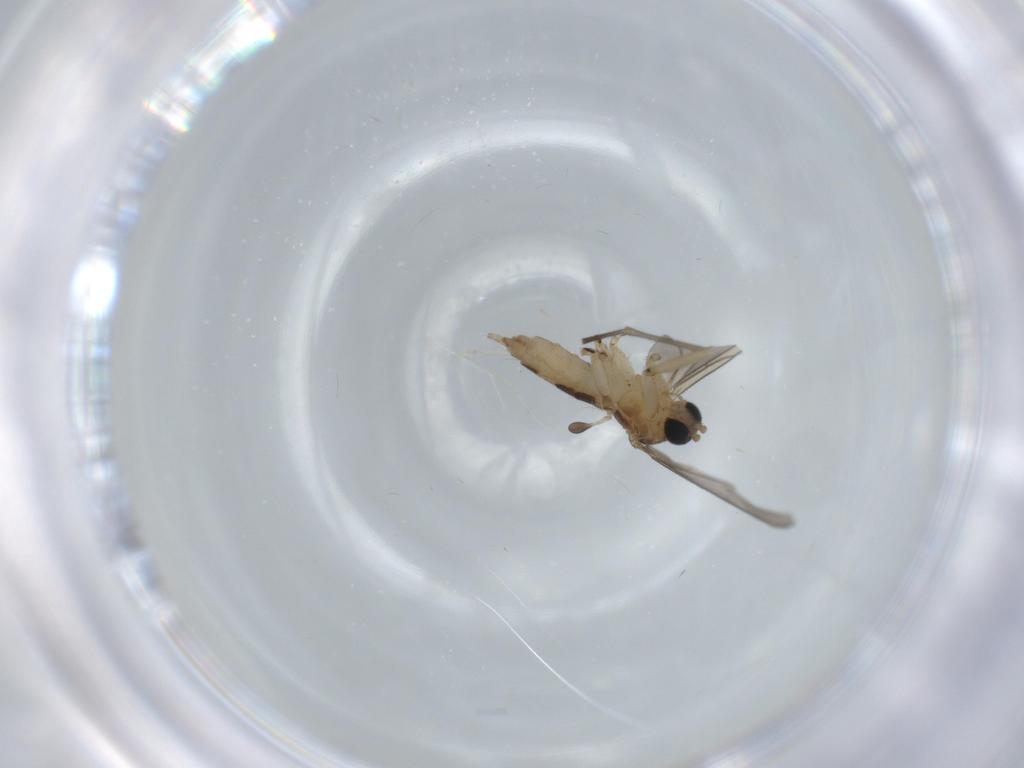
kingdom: Animalia
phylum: Arthropoda
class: Insecta
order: Diptera
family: Sciaridae
